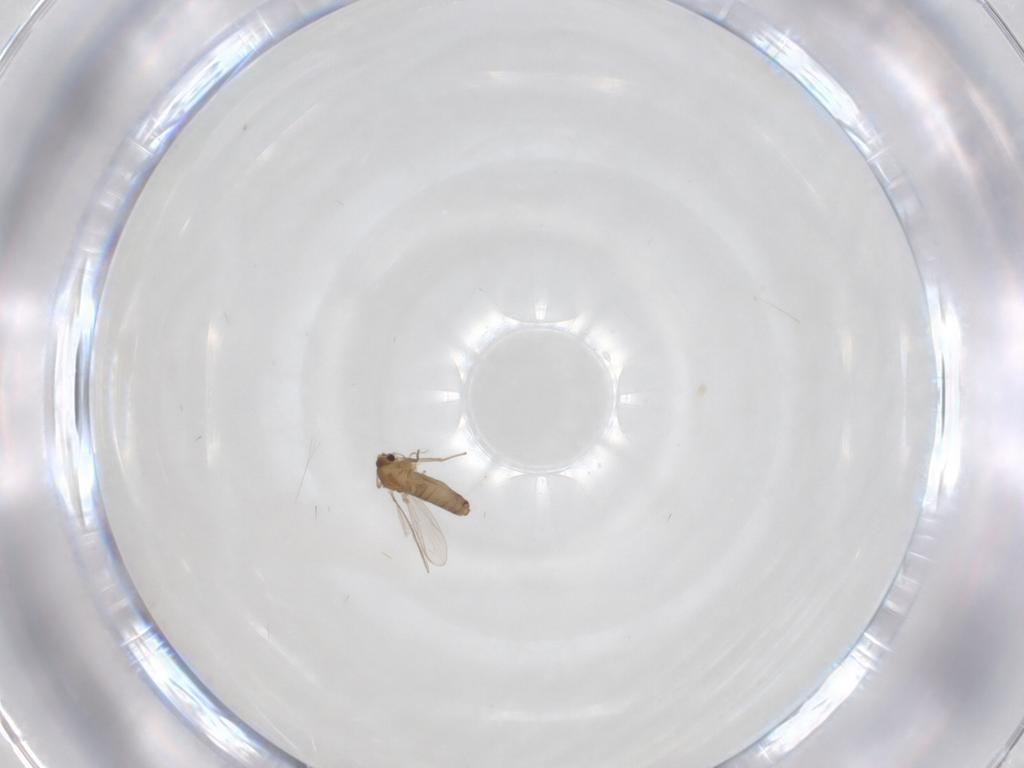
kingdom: Animalia
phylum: Arthropoda
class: Insecta
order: Diptera
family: Chironomidae
